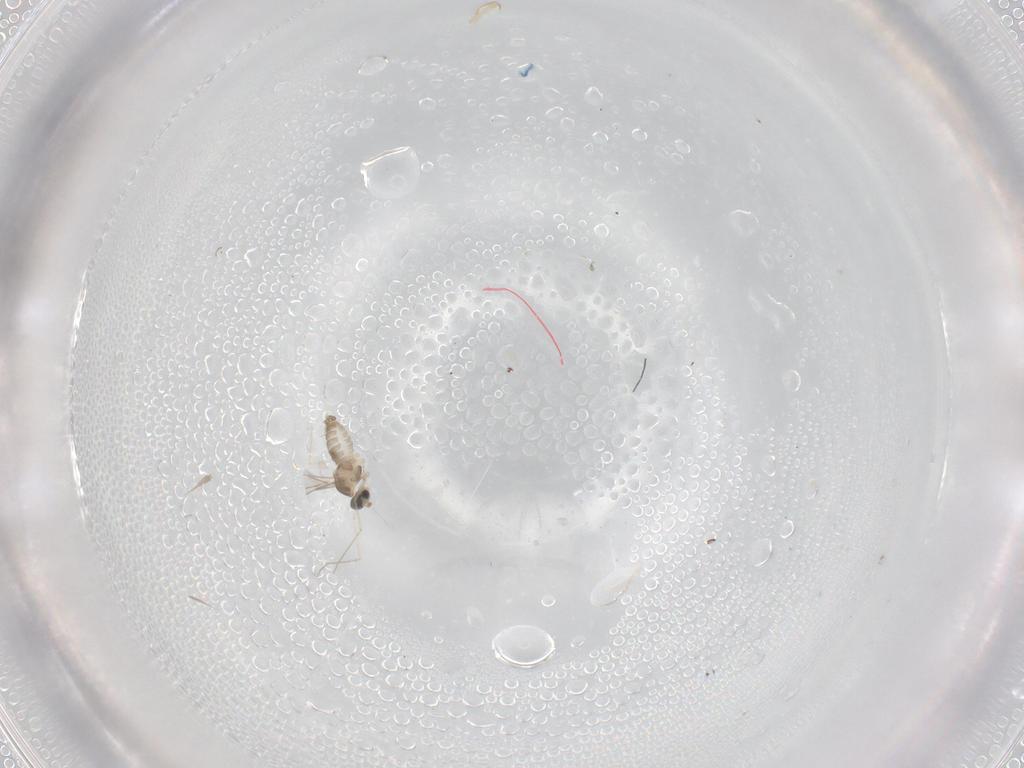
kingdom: Animalia
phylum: Arthropoda
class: Insecta
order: Diptera
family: Cecidomyiidae
